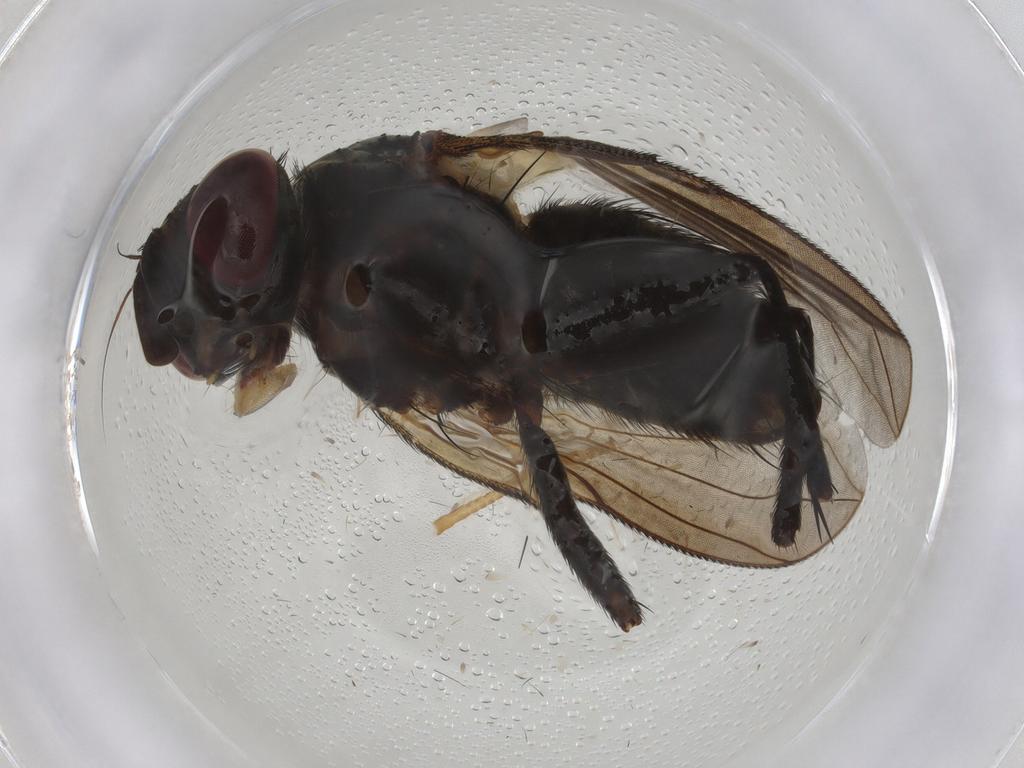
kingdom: Animalia
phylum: Arthropoda
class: Insecta
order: Diptera
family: Tachinidae
